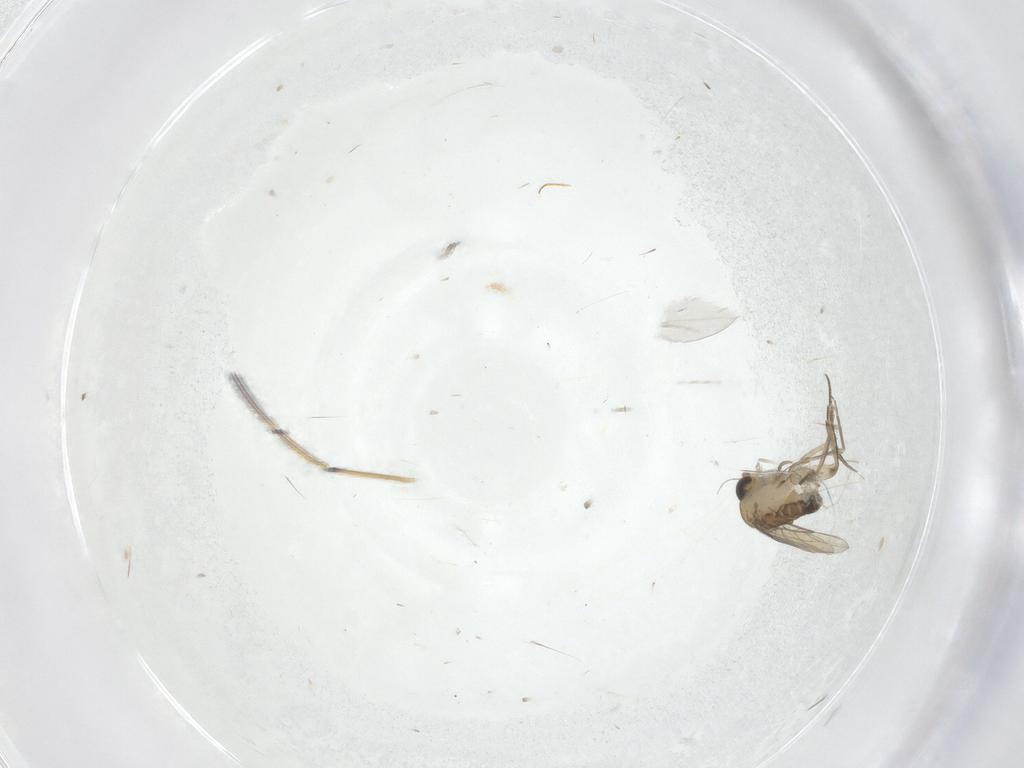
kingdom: Animalia
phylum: Arthropoda
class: Insecta
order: Diptera
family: Phoridae
